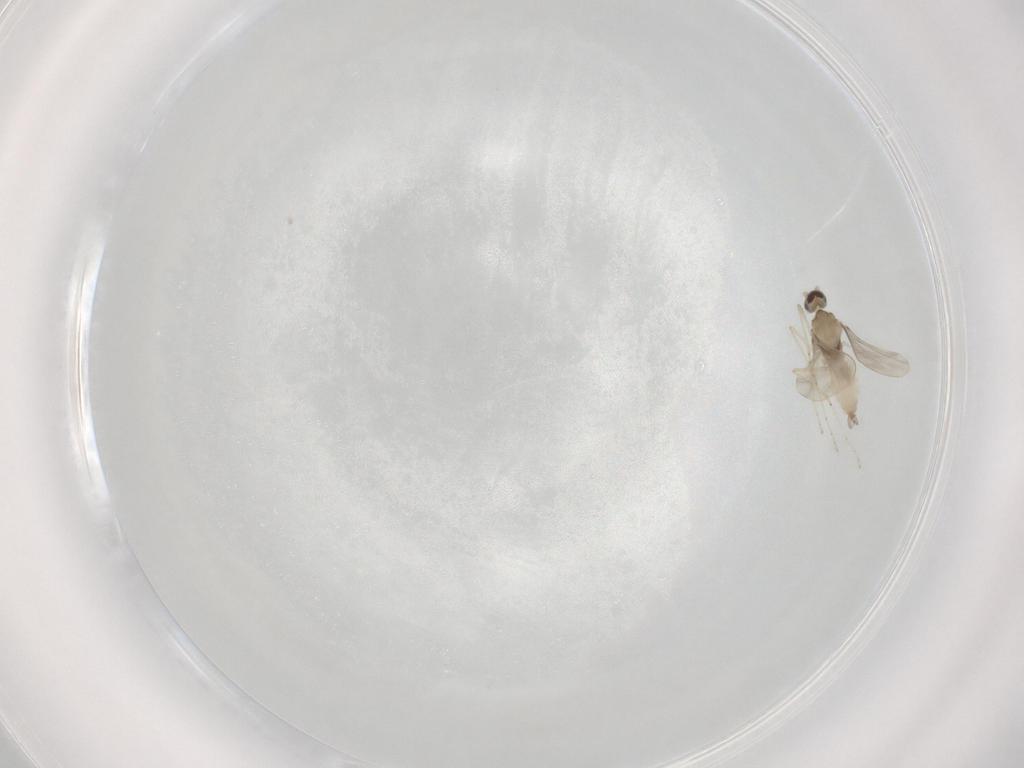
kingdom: Animalia
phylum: Arthropoda
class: Insecta
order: Diptera
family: Cecidomyiidae
